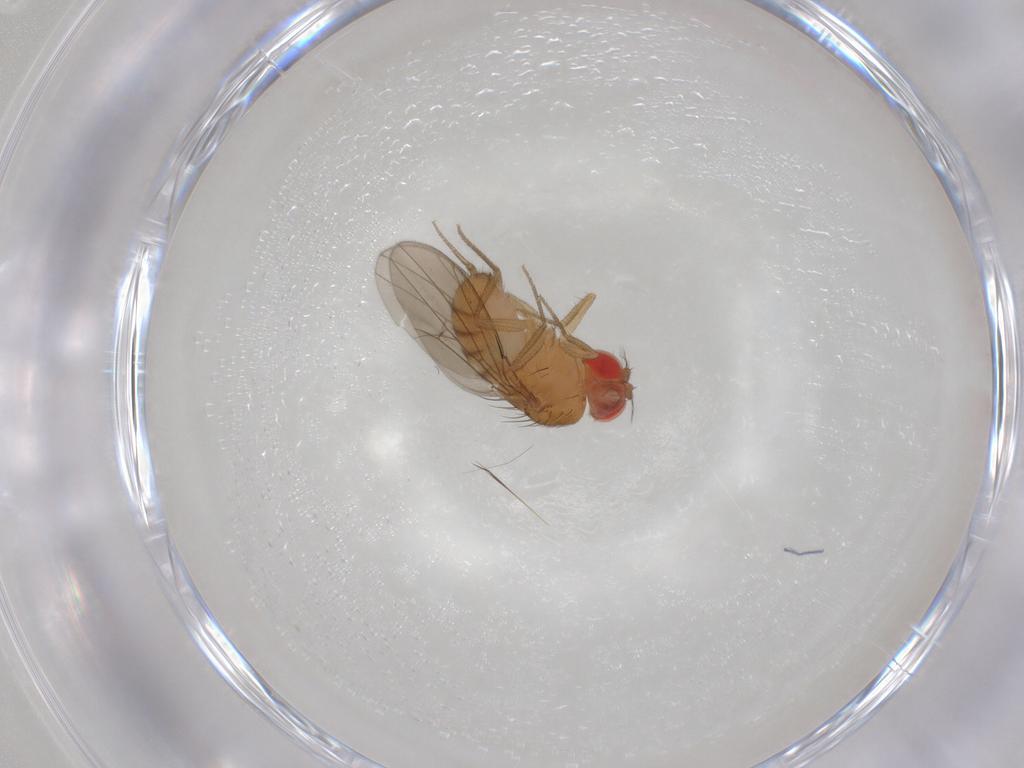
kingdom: Animalia
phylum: Arthropoda
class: Insecta
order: Diptera
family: Drosophilidae
